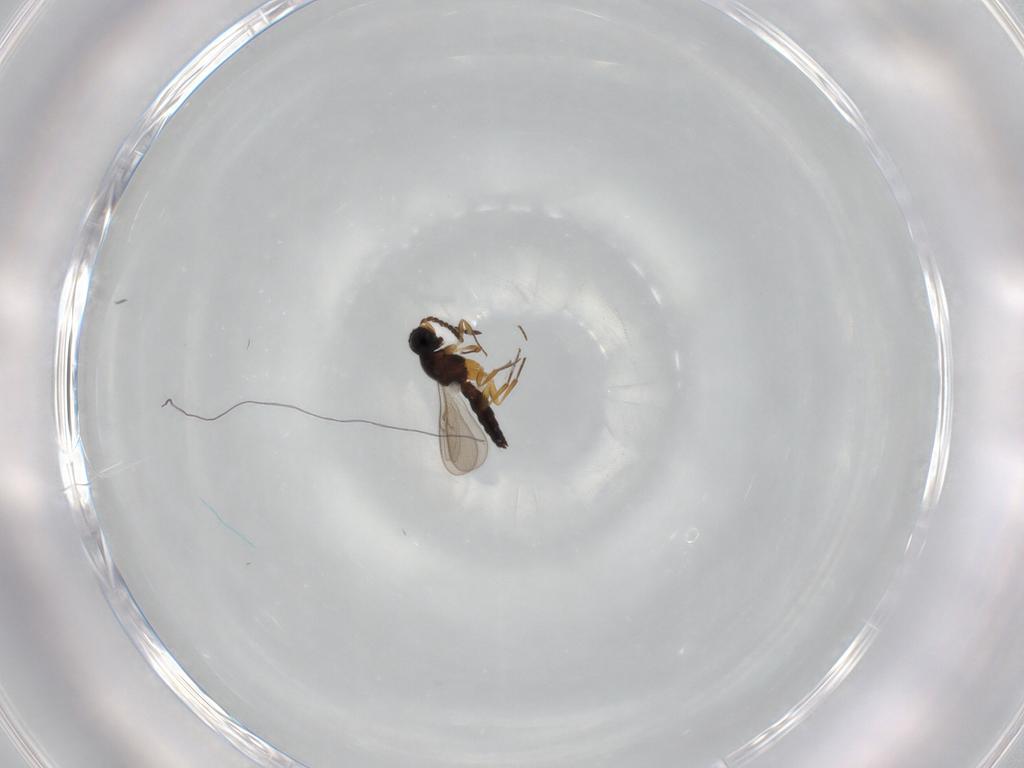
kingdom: Animalia
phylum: Arthropoda
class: Insecta
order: Hymenoptera
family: Scelionidae
